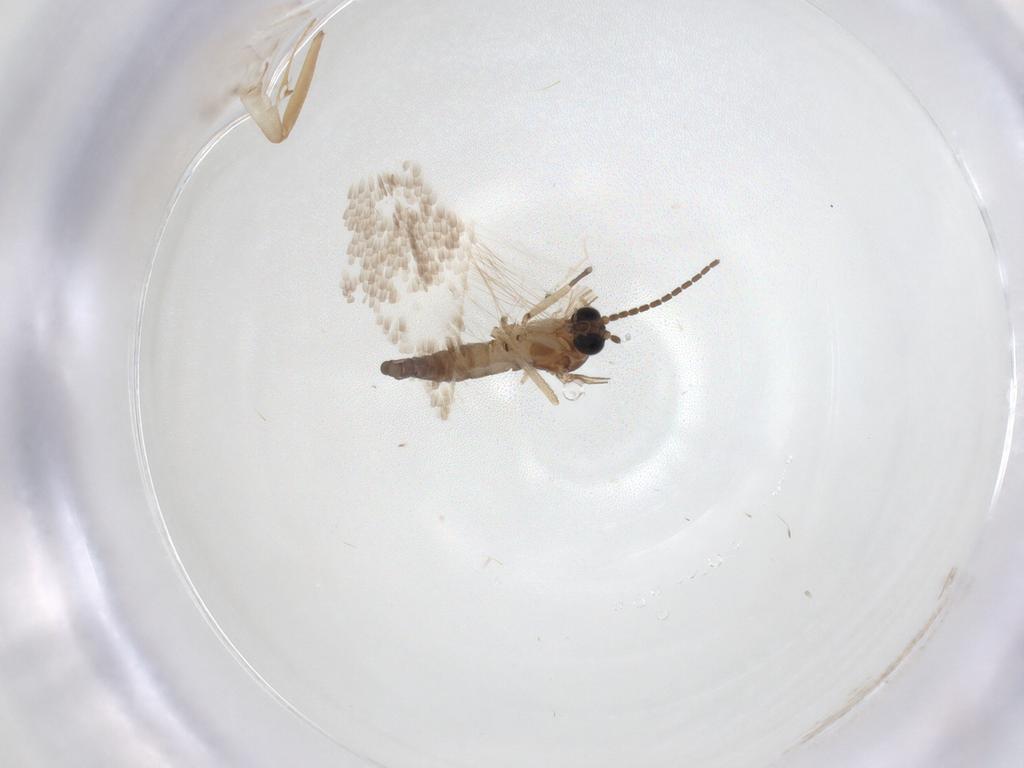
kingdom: Animalia
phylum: Arthropoda
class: Insecta
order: Diptera
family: Sciaridae
